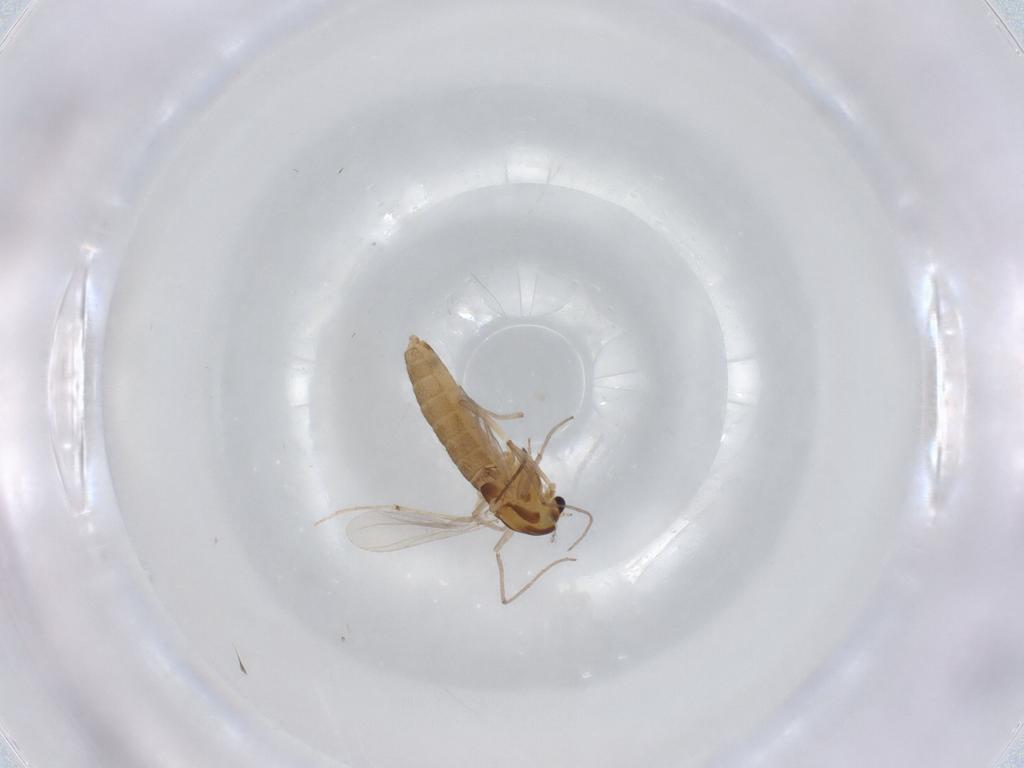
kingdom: Animalia
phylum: Arthropoda
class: Insecta
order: Diptera
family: Chironomidae
